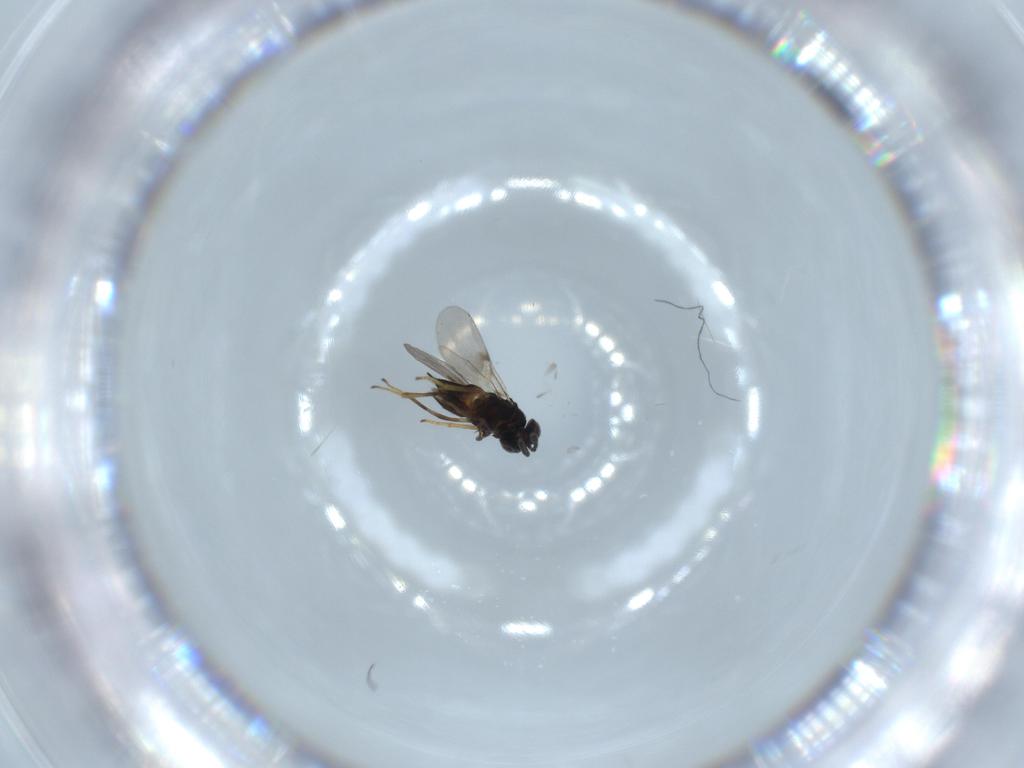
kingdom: Animalia
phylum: Arthropoda
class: Insecta
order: Hymenoptera
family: Encyrtidae
